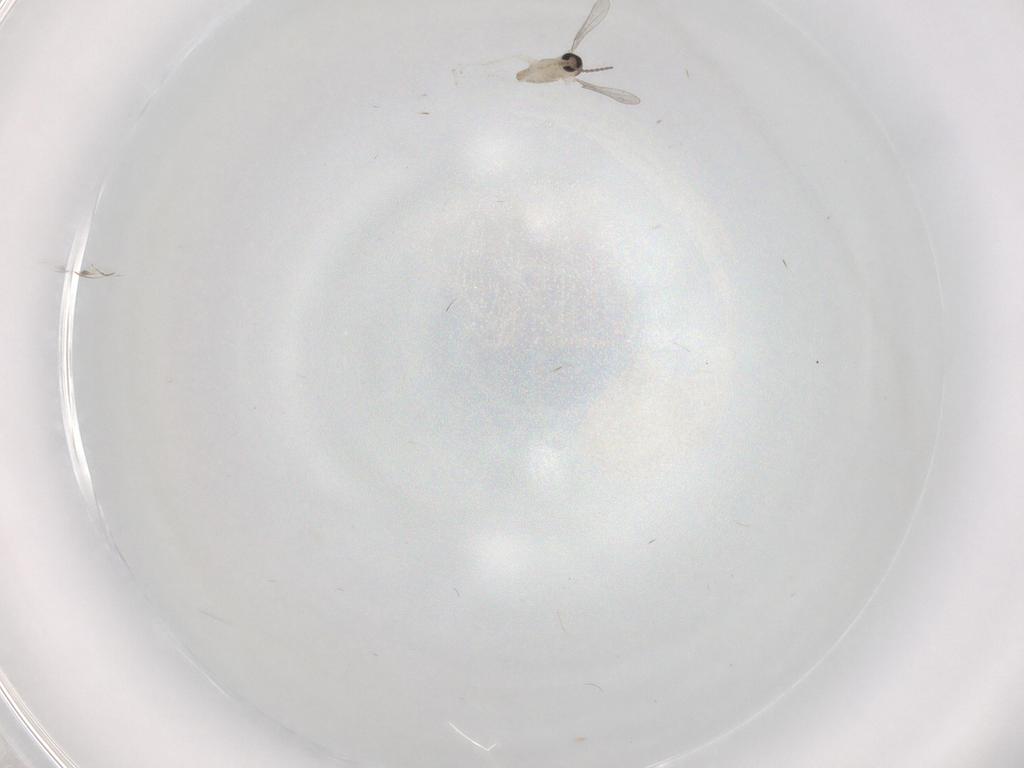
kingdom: Animalia
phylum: Arthropoda
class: Insecta
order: Diptera
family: Cecidomyiidae
